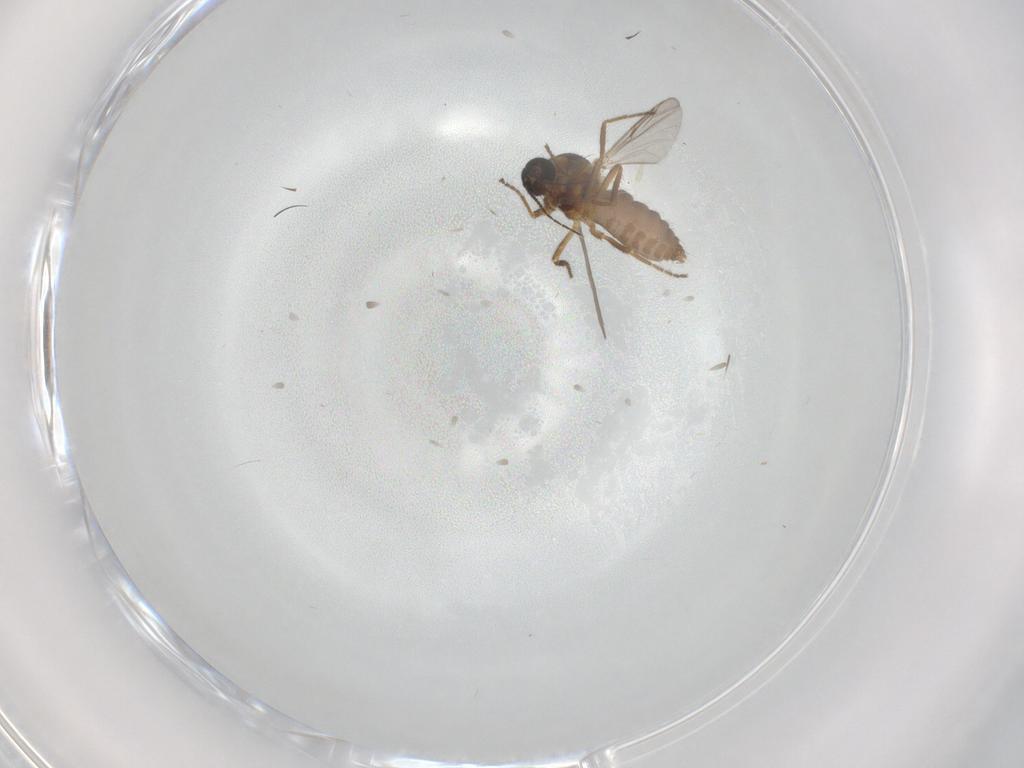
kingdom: Animalia
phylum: Arthropoda
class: Insecta
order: Diptera
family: Ceratopogonidae
